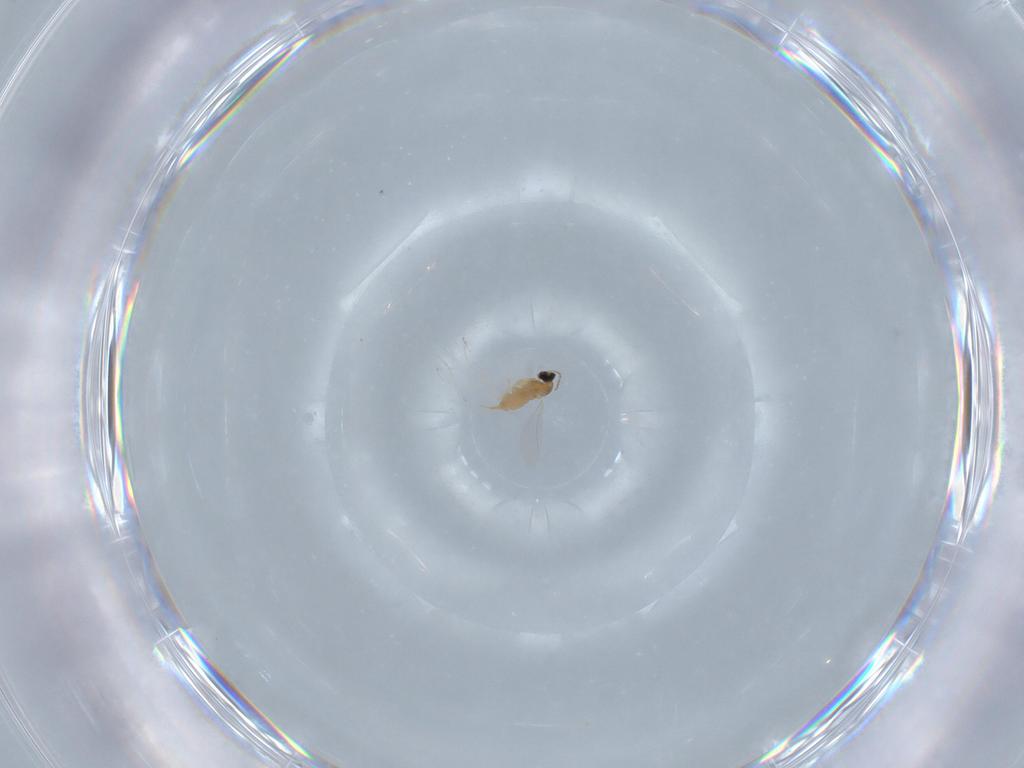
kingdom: Animalia
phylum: Arthropoda
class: Insecta
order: Diptera
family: Cecidomyiidae
